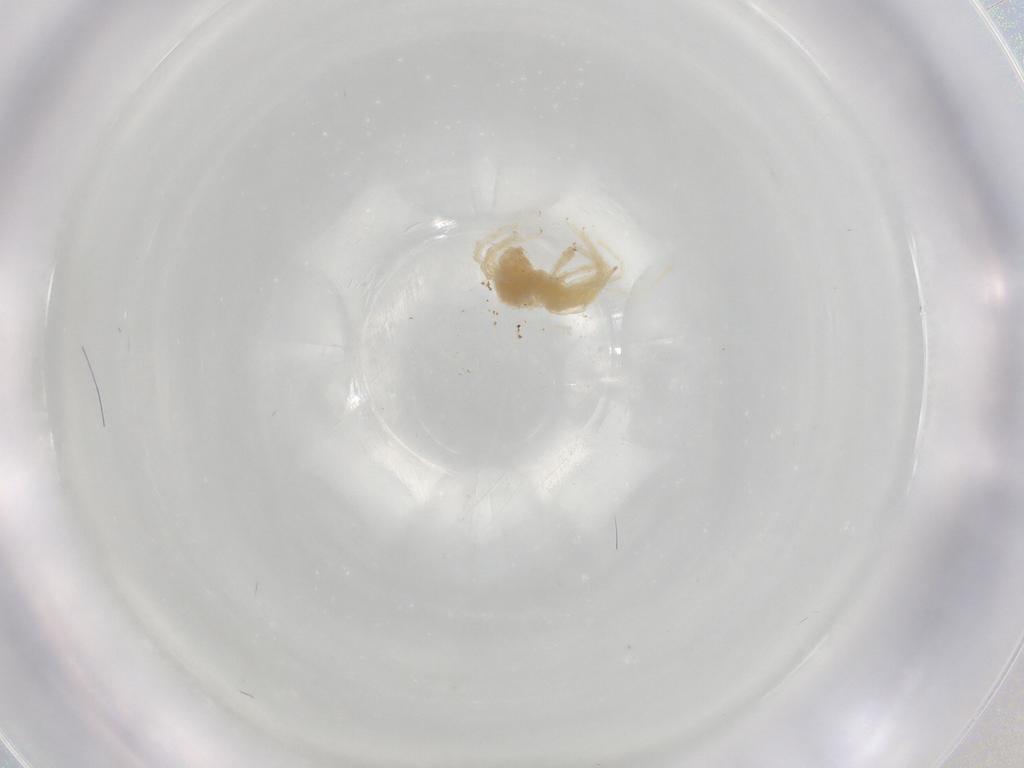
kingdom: Animalia
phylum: Arthropoda
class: Arachnida
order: Trombidiformes
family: Bdellidae
